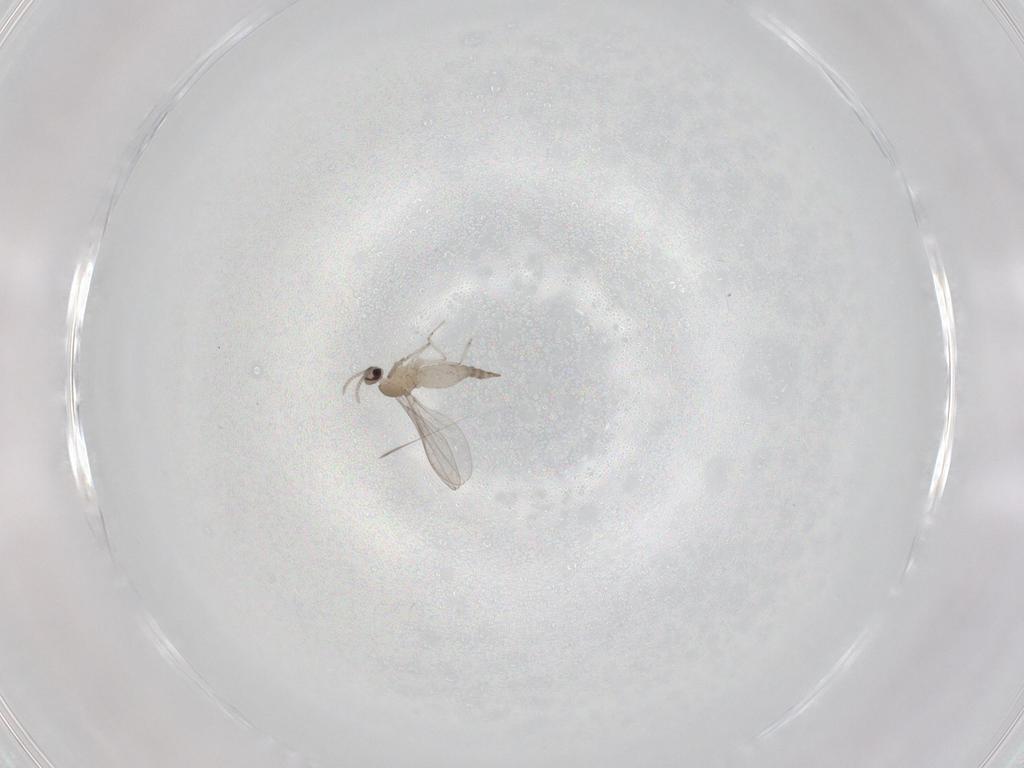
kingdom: Animalia
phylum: Arthropoda
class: Insecta
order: Diptera
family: Cecidomyiidae
